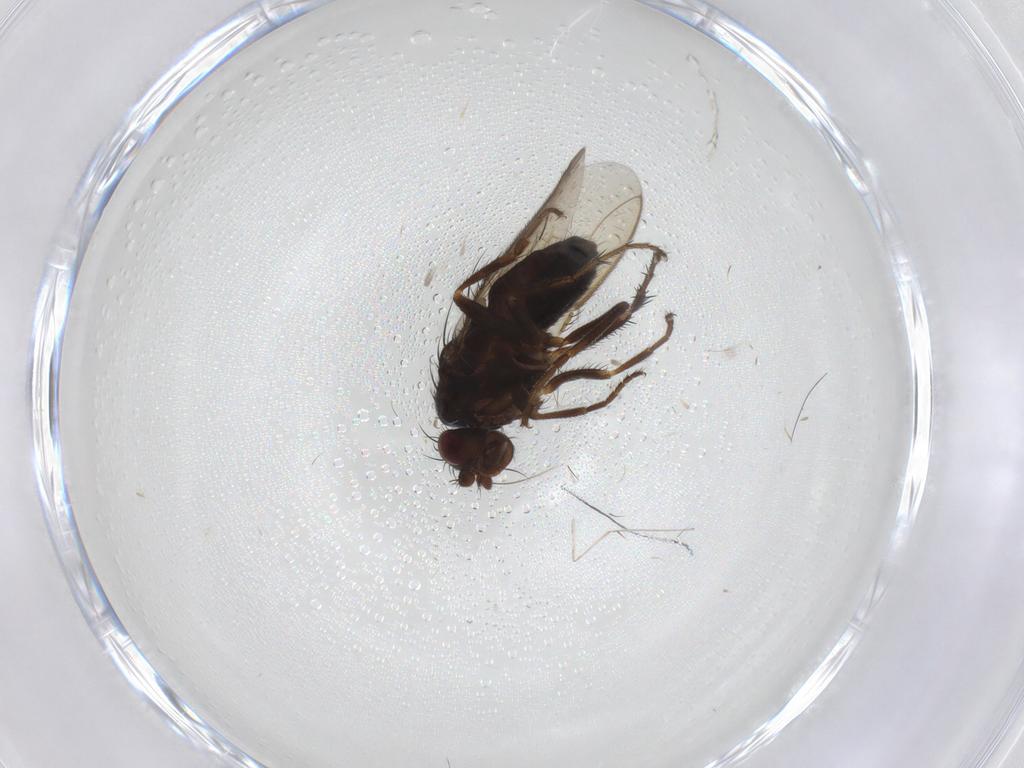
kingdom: Animalia
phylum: Arthropoda
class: Insecta
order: Diptera
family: Sphaeroceridae
